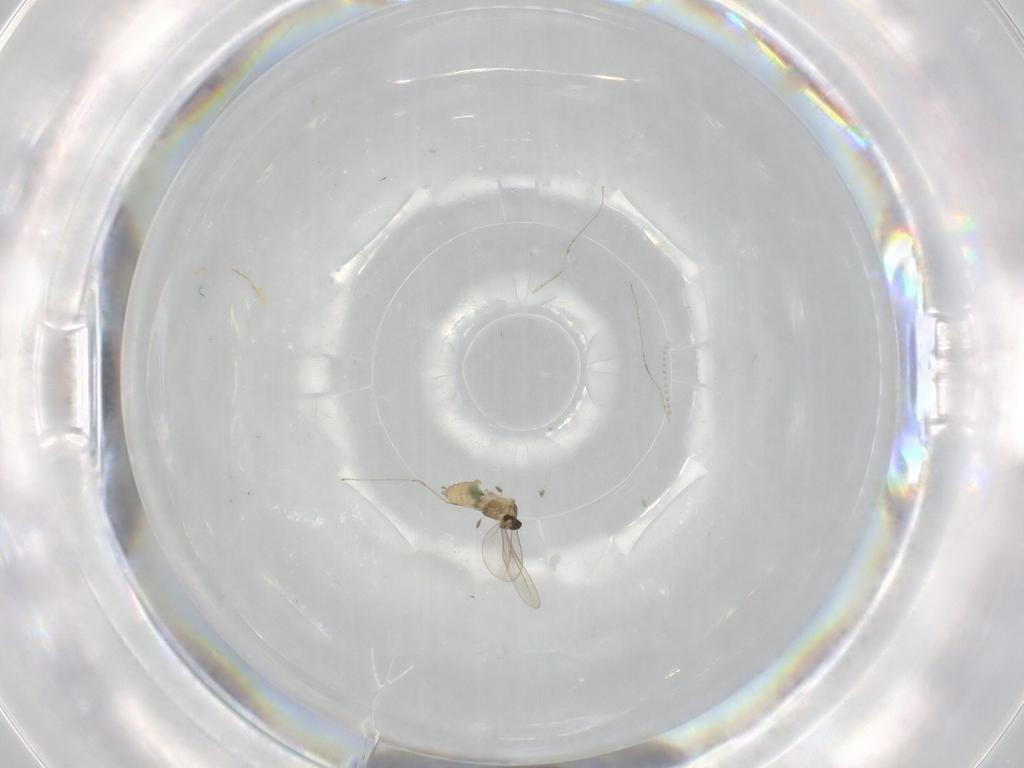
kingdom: Animalia
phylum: Arthropoda
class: Insecta
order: Diptera
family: Cecidomyiidae
